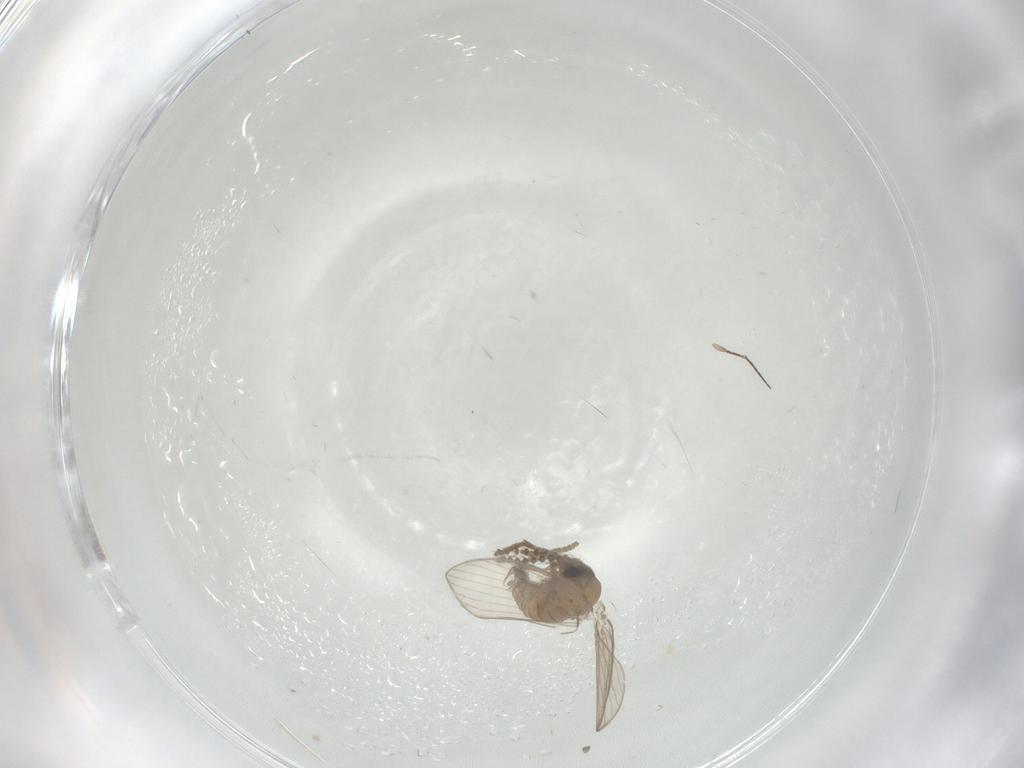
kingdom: Animalia
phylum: Arthropoda
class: Insecta
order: Diptera
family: Psychodidae
